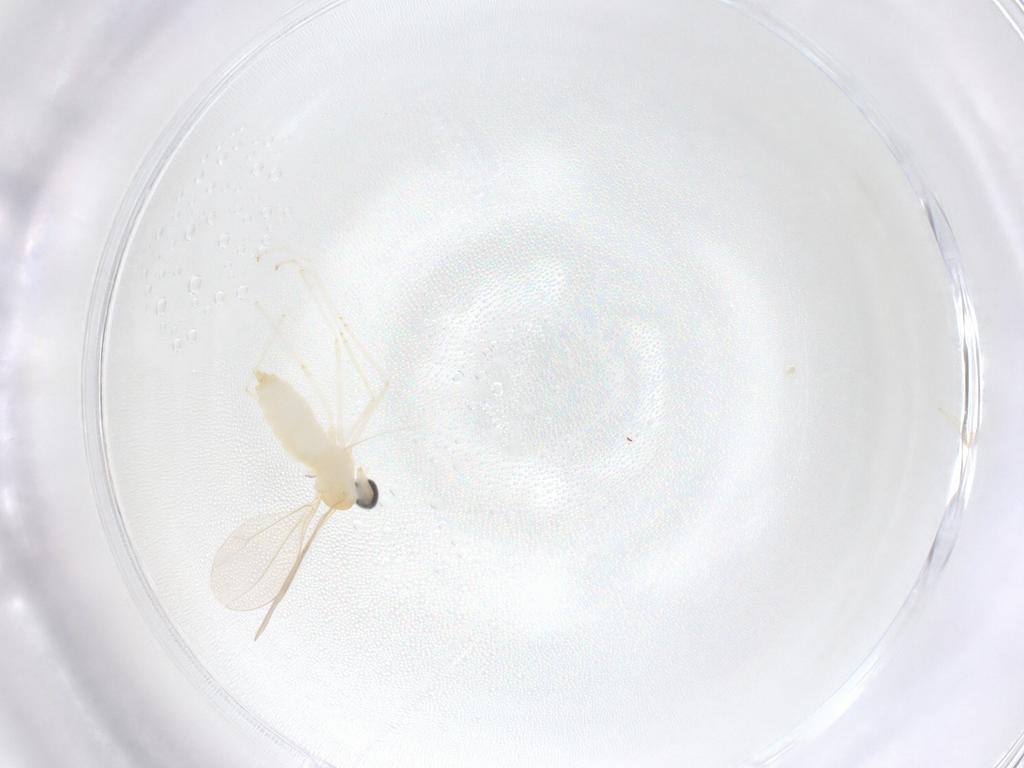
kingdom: Animalia
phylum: Arthropoda
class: Insecta
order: Diptera
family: Cecidomyiidae
